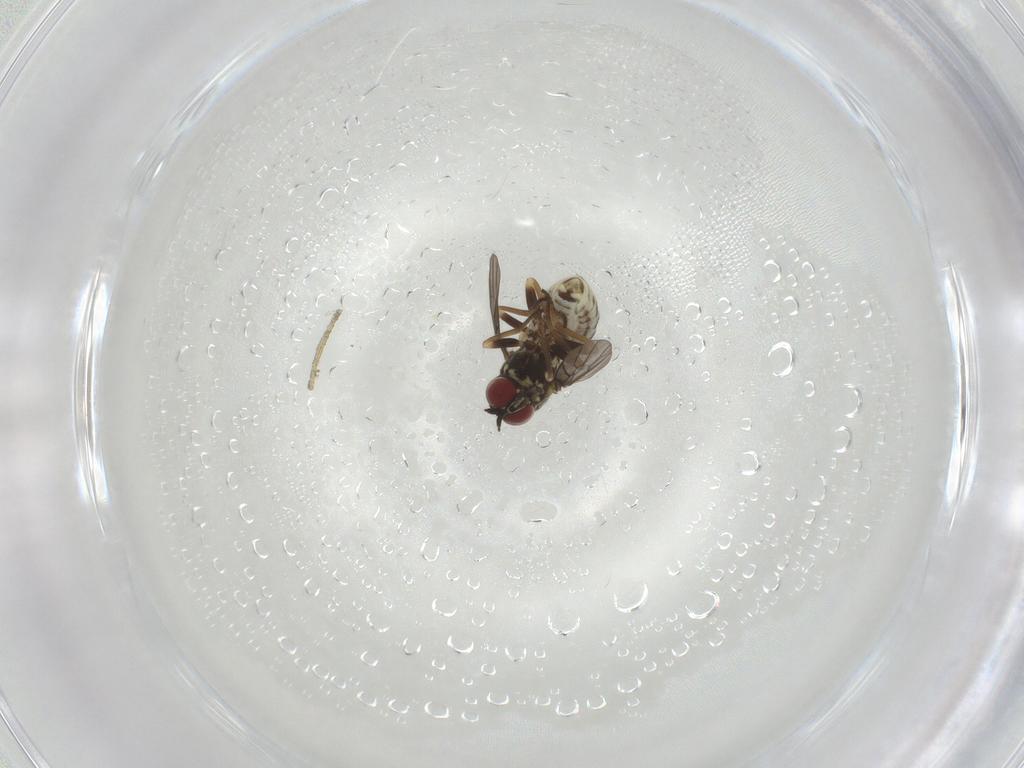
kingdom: Animalia
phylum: Arthropoda
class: Insecta
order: Diptera
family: Bombyliidae
